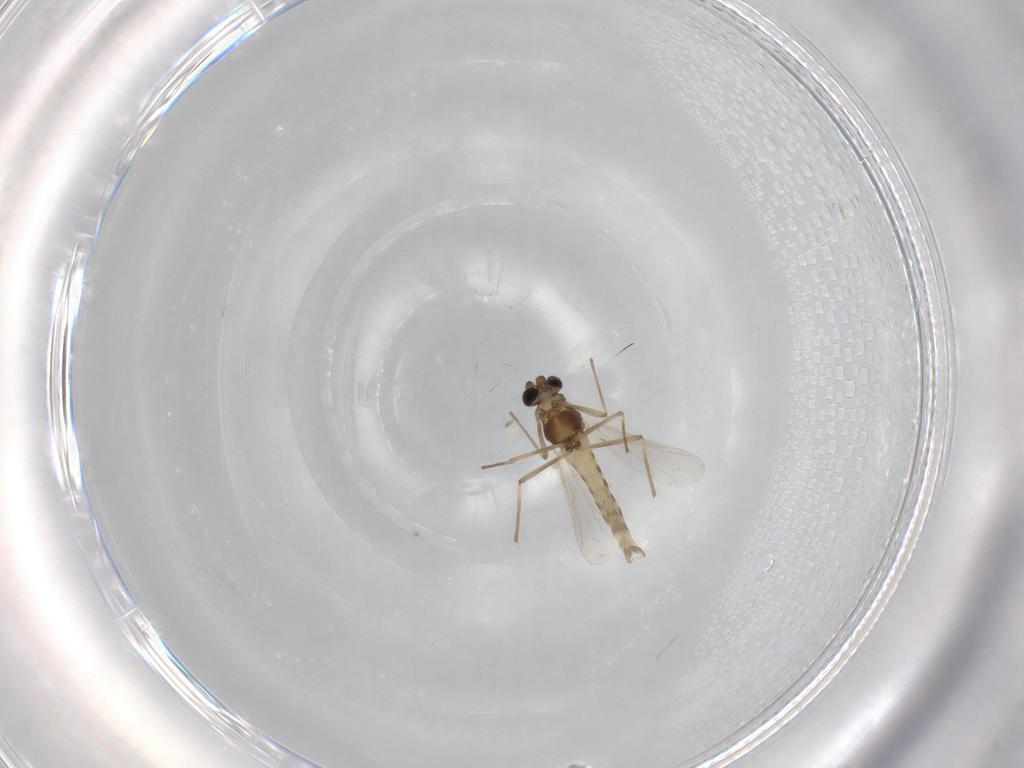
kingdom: Animalia
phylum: Arthropoda
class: Insecta
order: Diptera
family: Chironomidae
